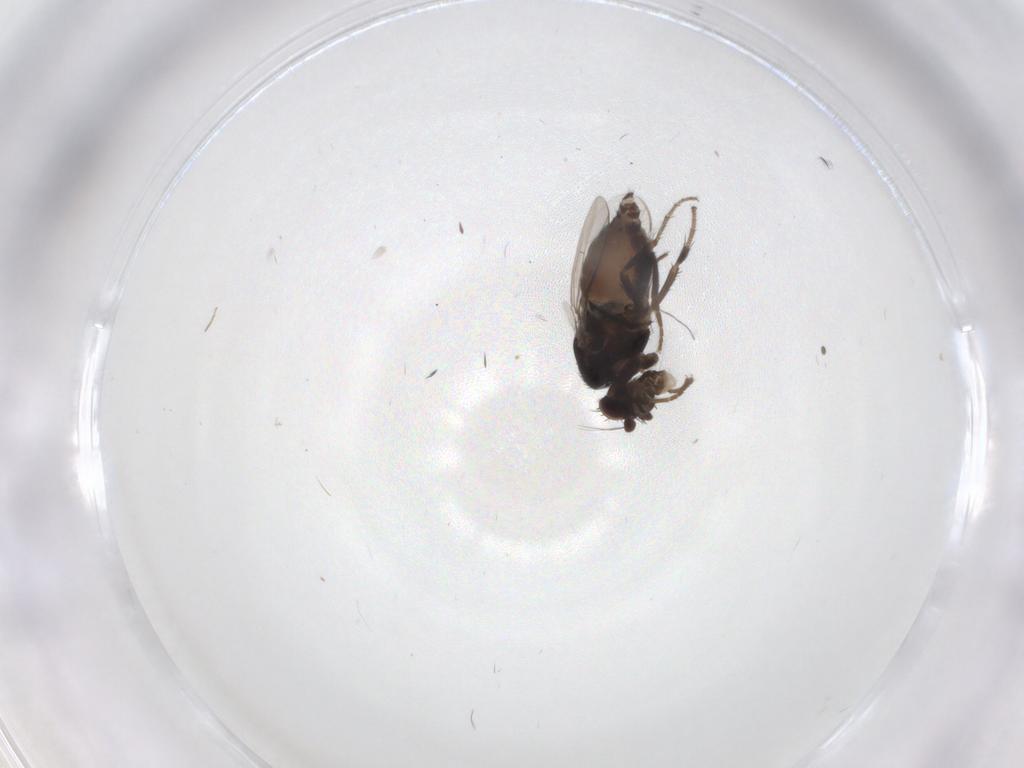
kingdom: Animalia
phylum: Arthropoda
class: Insecta
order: Diptera
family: Sphaeroceridae
